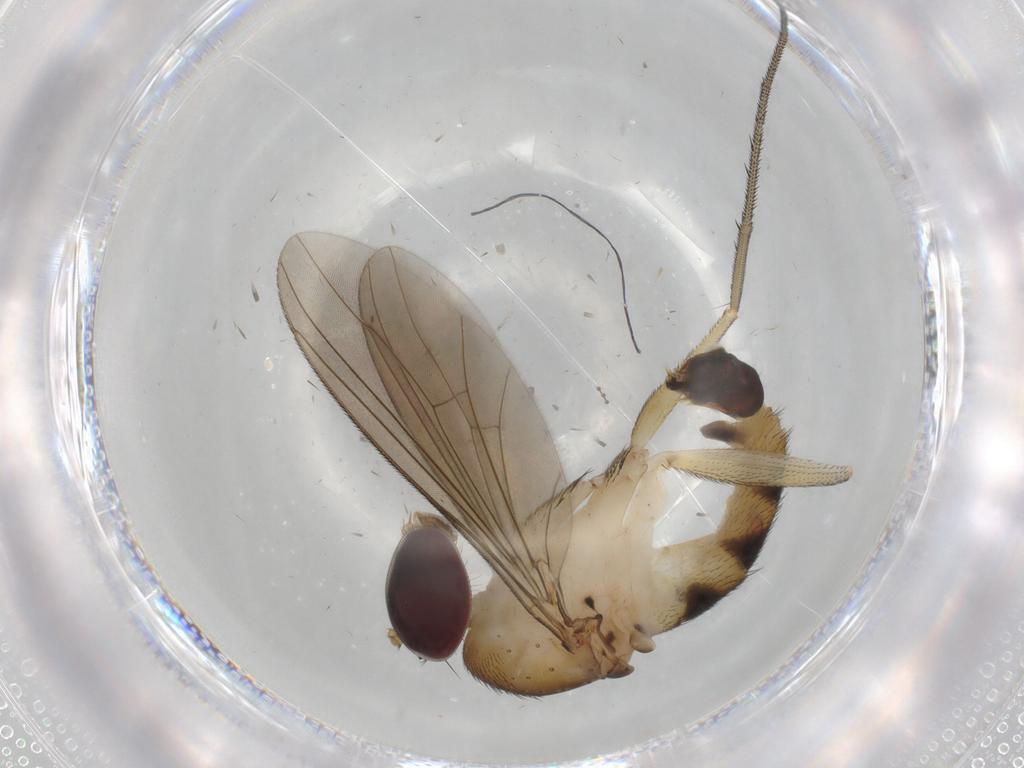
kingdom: Animalia
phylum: Arthropoda
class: Insecta
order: Diptera
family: Dolichopodidae
